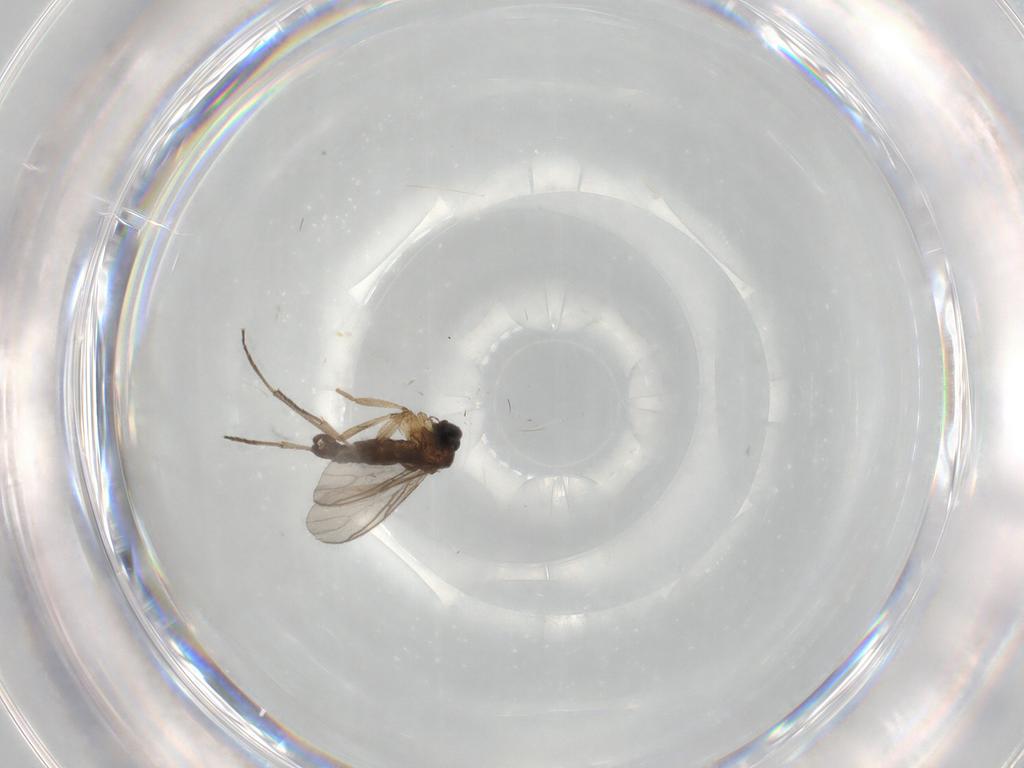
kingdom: Animalia
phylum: Arthropoda
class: Insecta
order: Diptera
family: Sciaridae
